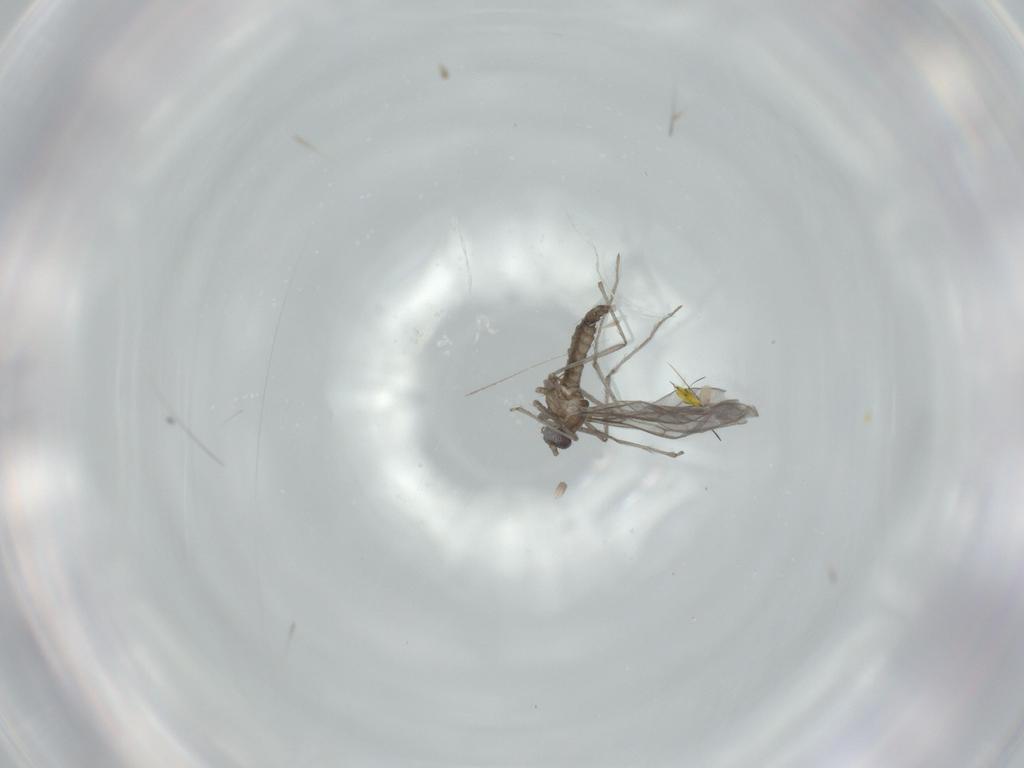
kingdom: Animalia
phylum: Arthropoda
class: Insecta
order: Diptera
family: Cecidomyiidae
